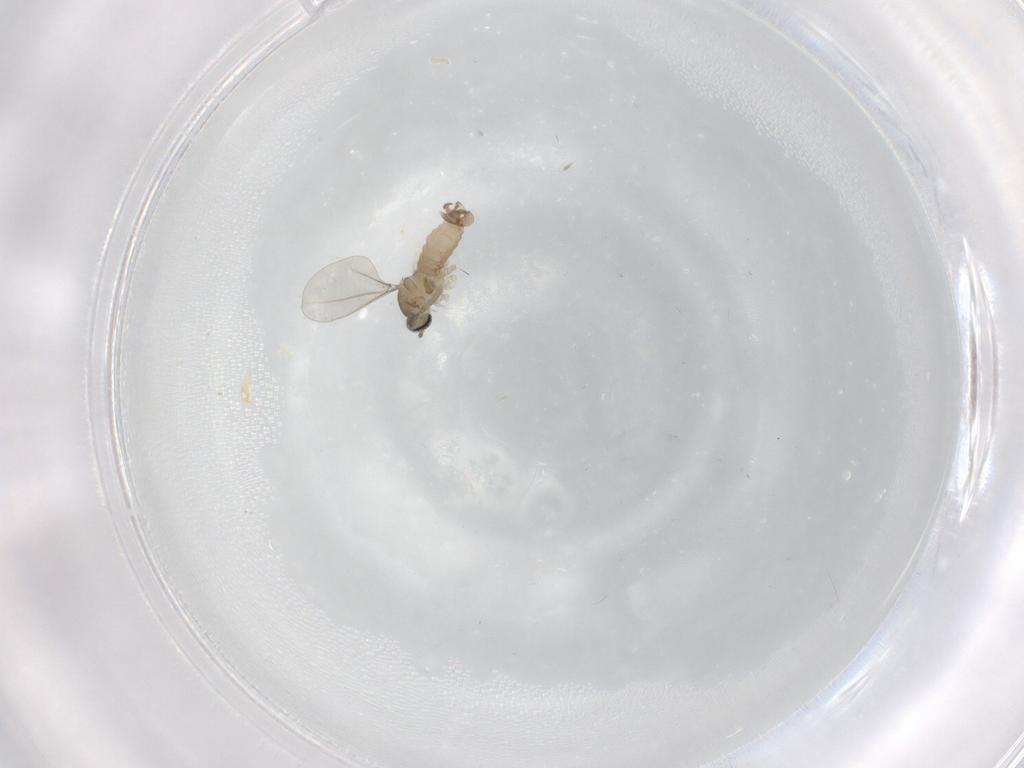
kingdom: Animalia
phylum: Arthropoda
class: Insecta
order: Diptera
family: Cecidomyiidae
